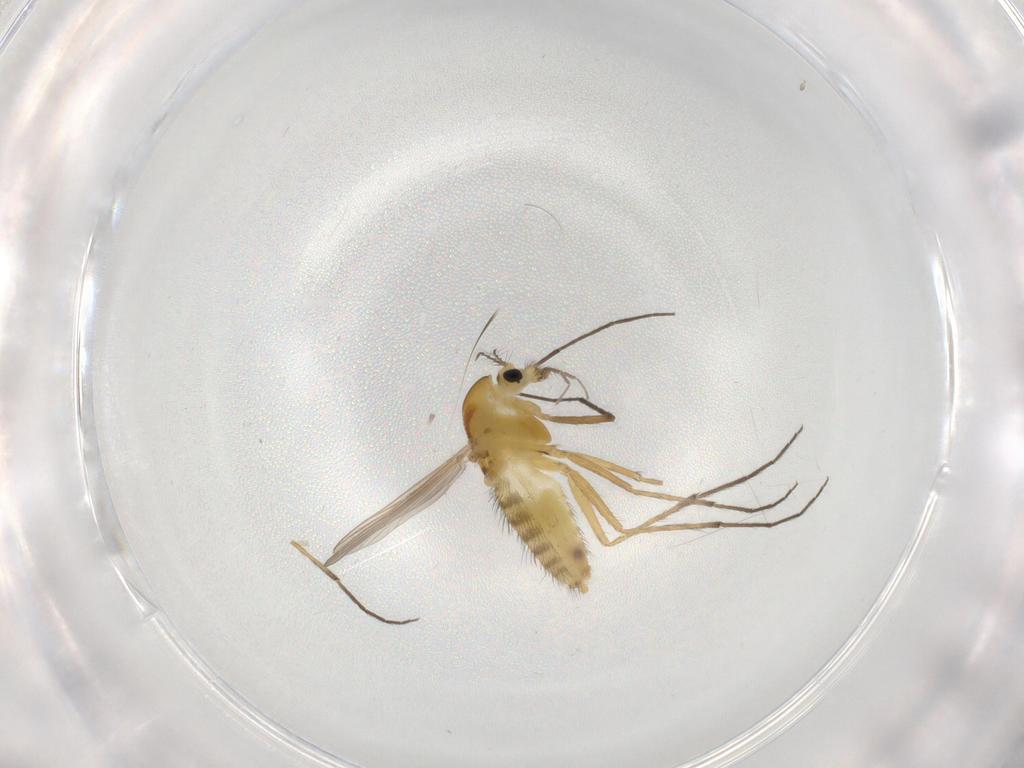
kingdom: Animalia
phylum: Arthropoda
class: Insecta
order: Diptera
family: Chironomidae
